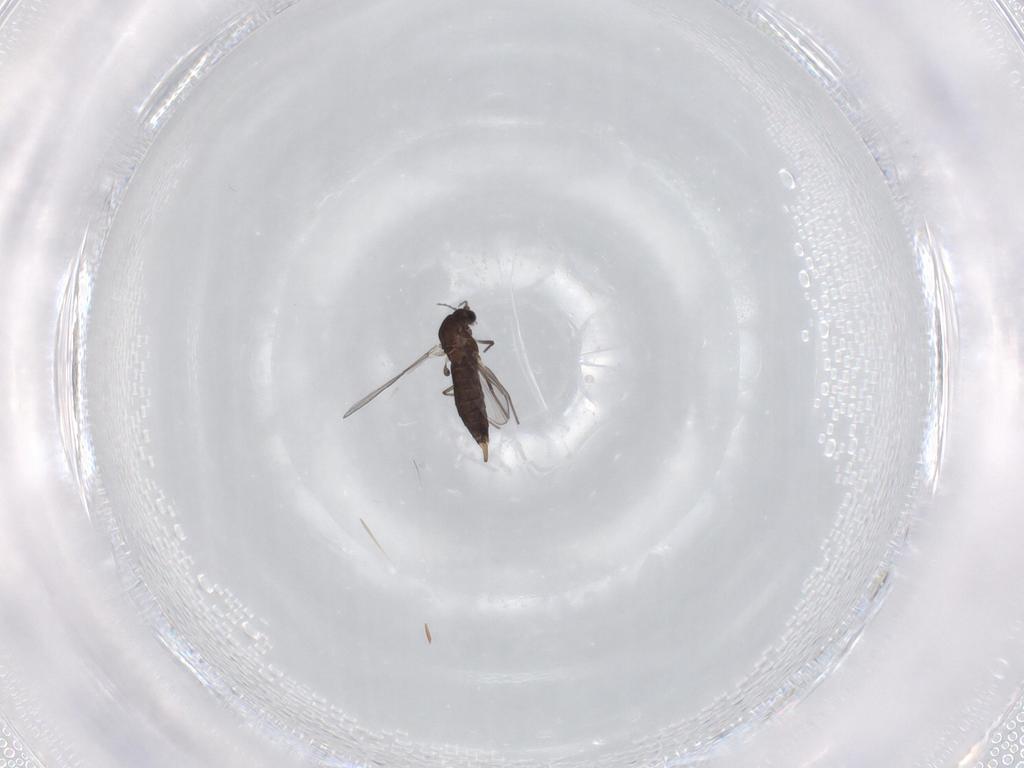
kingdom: Animalia
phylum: Arthropoda
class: Insecta
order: Diptera
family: Chironomidae
